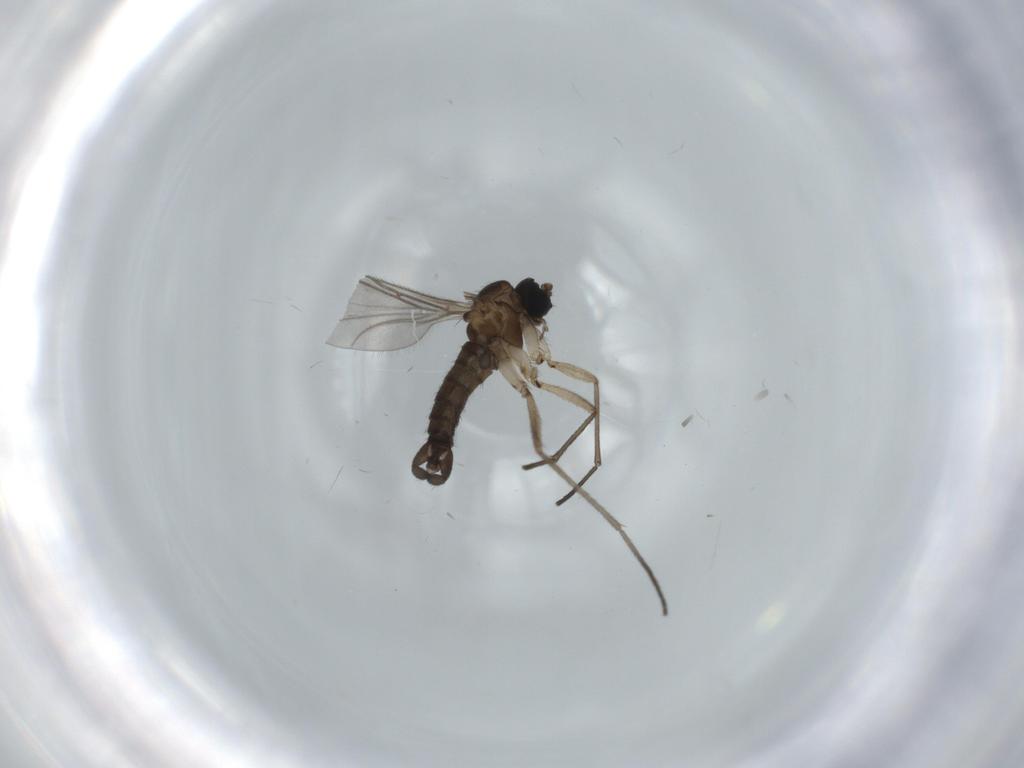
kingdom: Animalia
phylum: Arthropoda
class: Insecta
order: Diptera
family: Sciaridae
